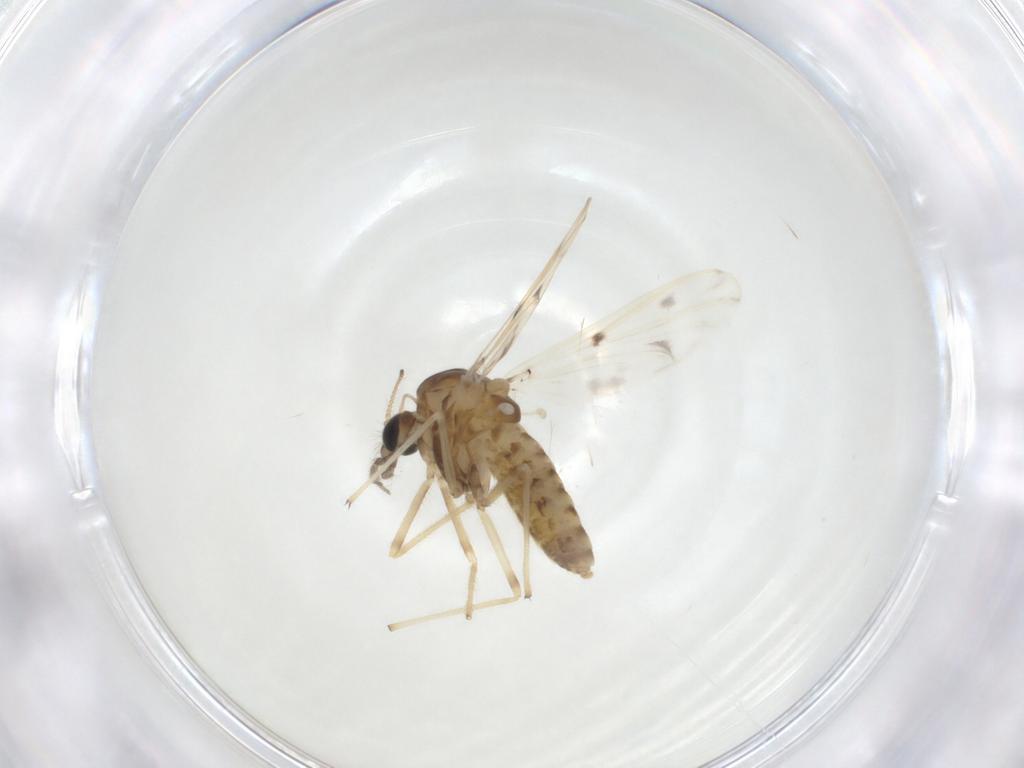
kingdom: Animalia
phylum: Arthropoda
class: Insecta
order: Diptera
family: Chironomidae
